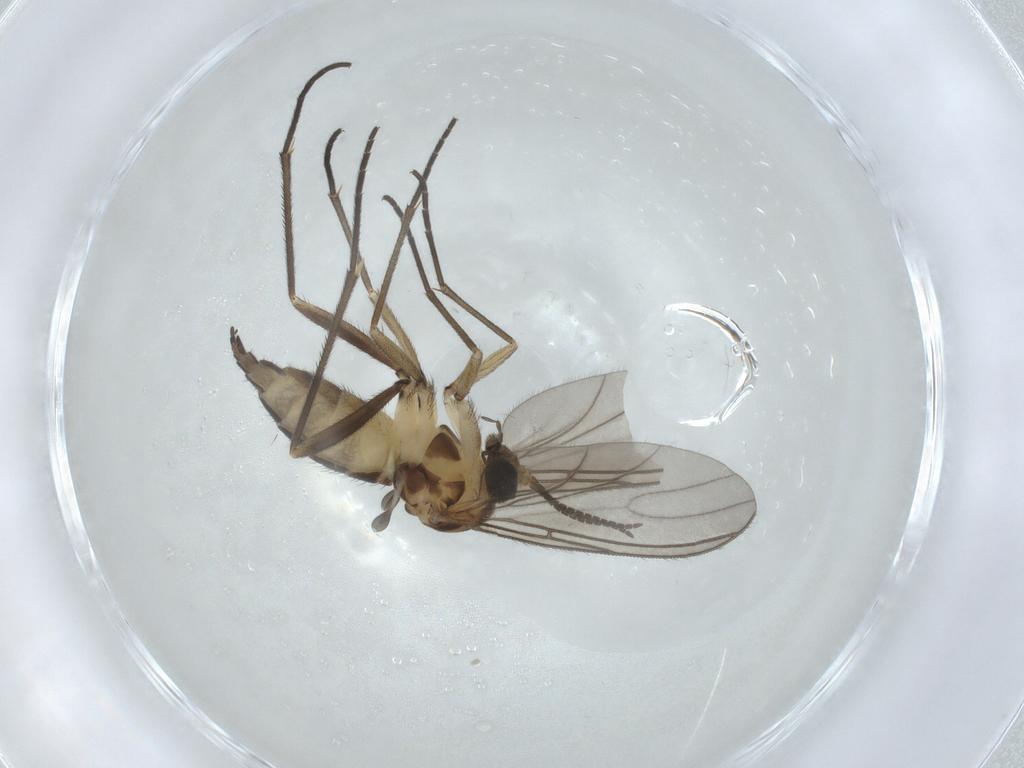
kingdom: Animalia
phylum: Arthropoda
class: Insecta
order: Diptera
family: Sciaridae
